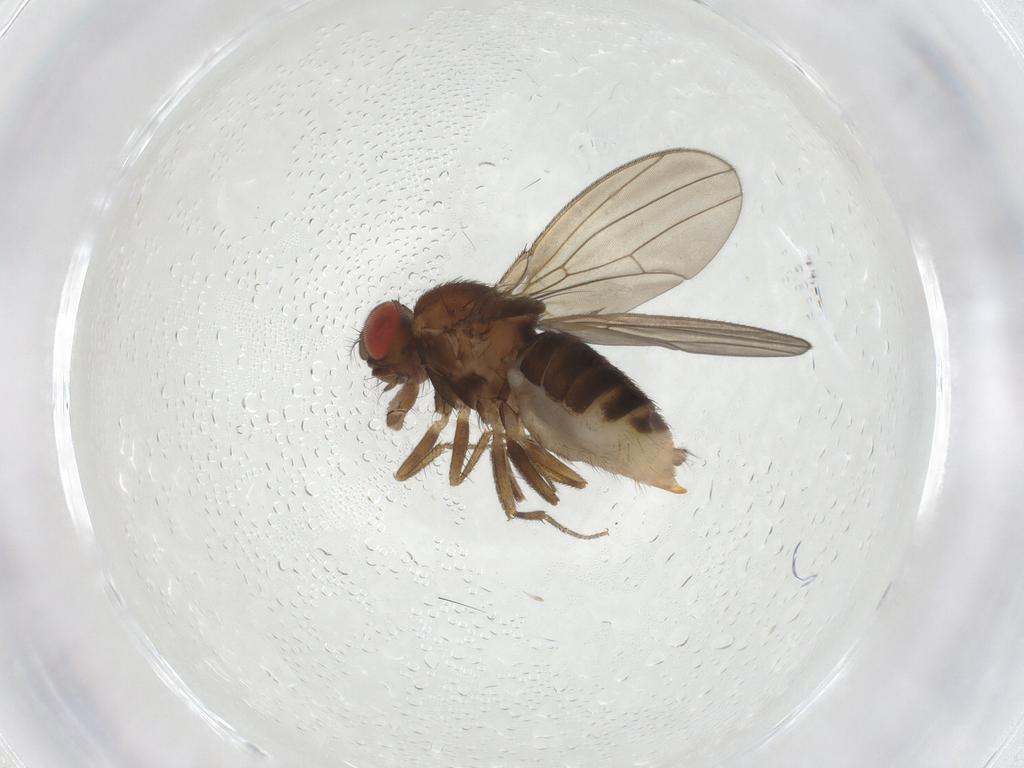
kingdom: Animalia
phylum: Arthropoda
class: Insecta
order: Diptera
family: Drosophilidae
